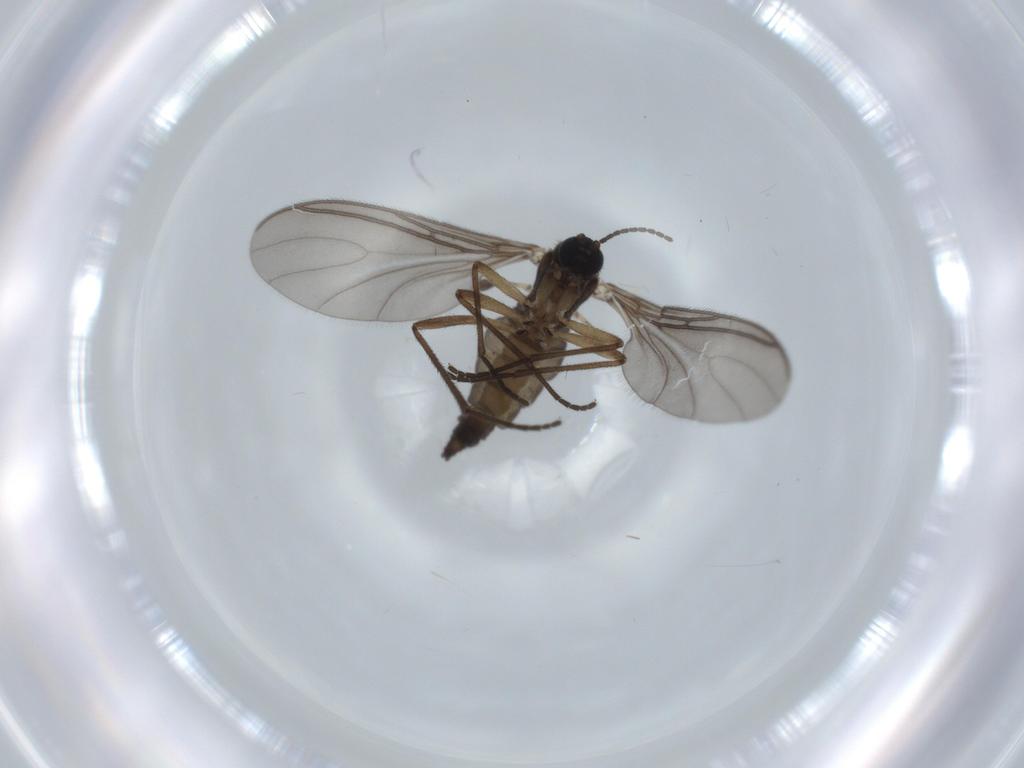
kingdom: Animalia
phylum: Arthropoda
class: Insecta
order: Diptera
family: Sciaridae
